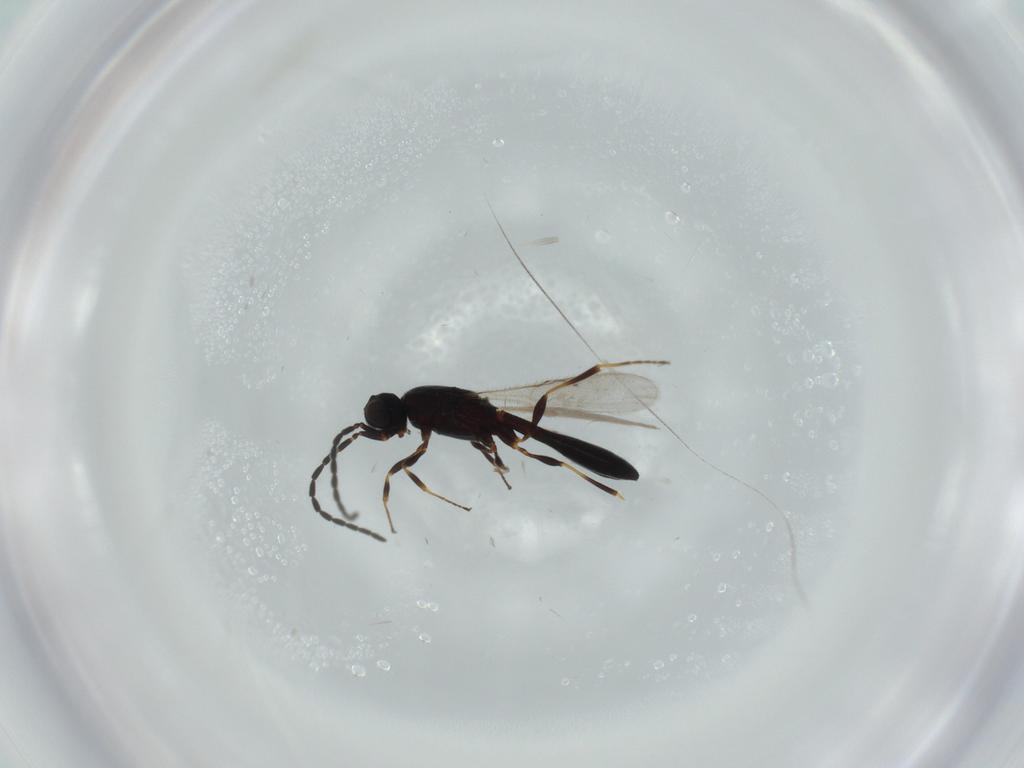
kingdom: Animalia
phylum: Arthropoda
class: Insecta
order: Hymenoptera
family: Scelionidae
